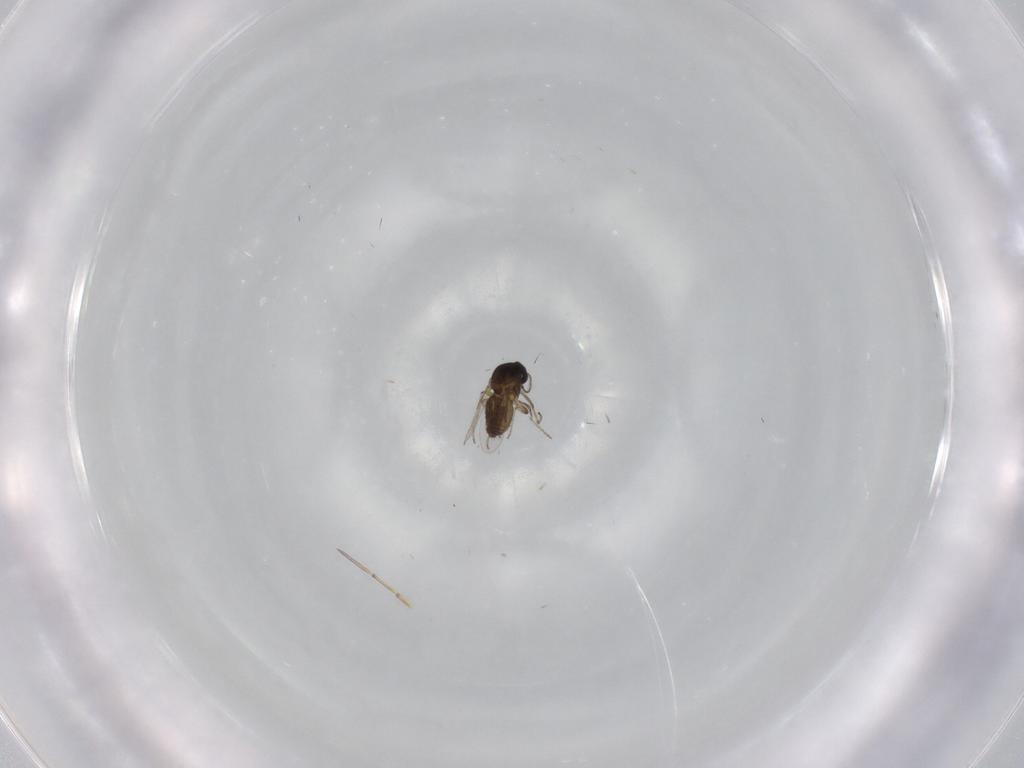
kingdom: Animalia
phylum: Arthropoda
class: Insecta
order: Diptera
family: Ceratopogonidae
